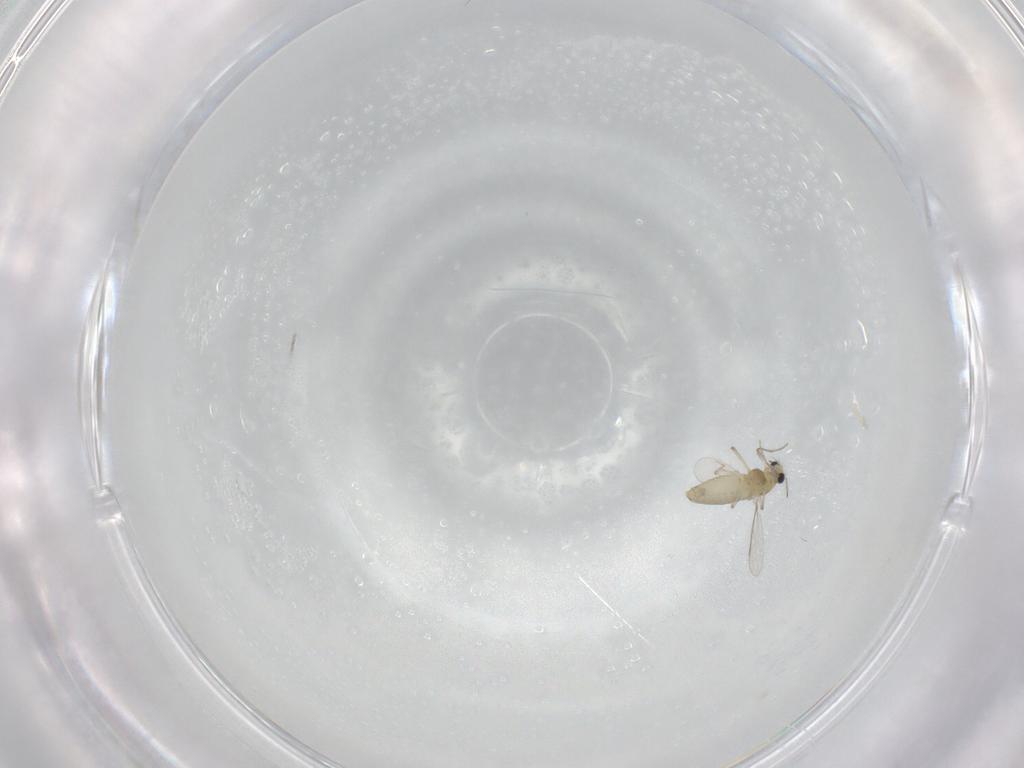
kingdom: Animalia
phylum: Arthropoda
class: Insecta
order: Diptera
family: Chironomidae
